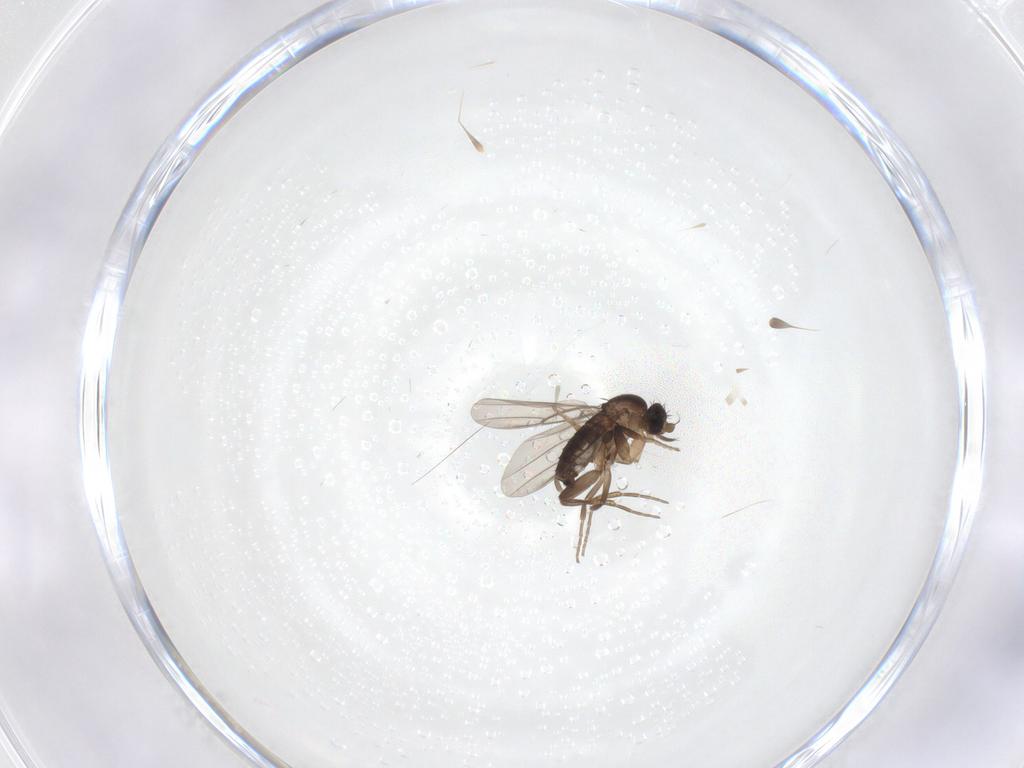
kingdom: Animalia
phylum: Arthropoda
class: Insecta
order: Diptera
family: Phoridae
